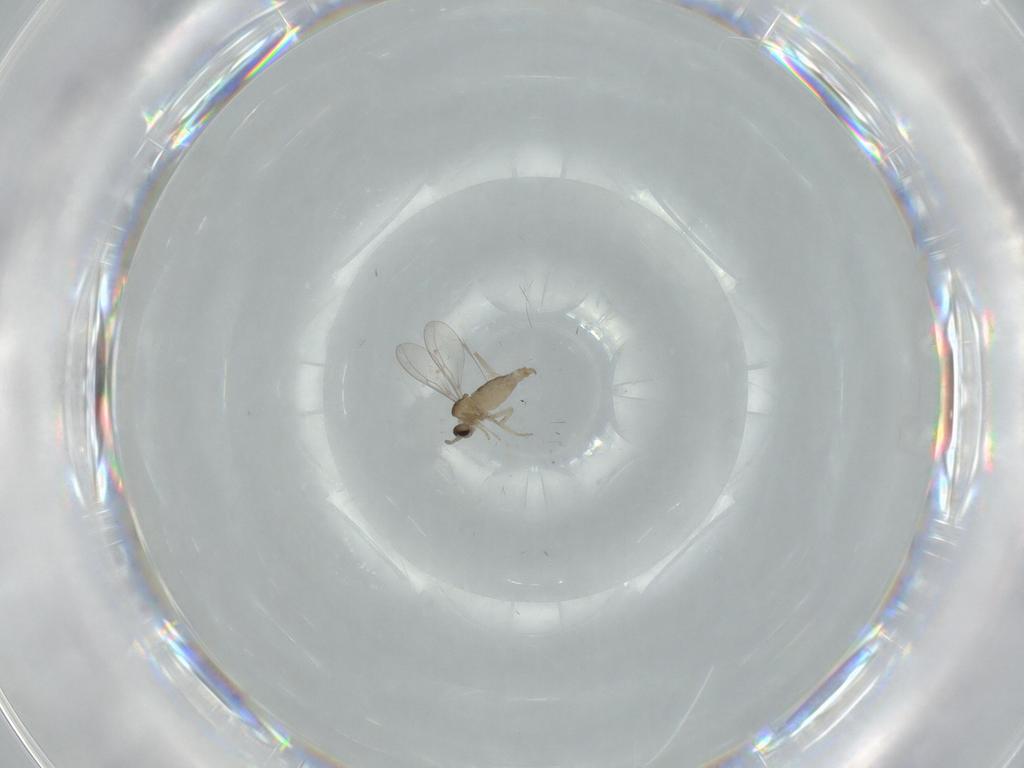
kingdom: Animalia
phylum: Arthropoda
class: Insecta
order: Diptera
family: Cecidomyiidae
